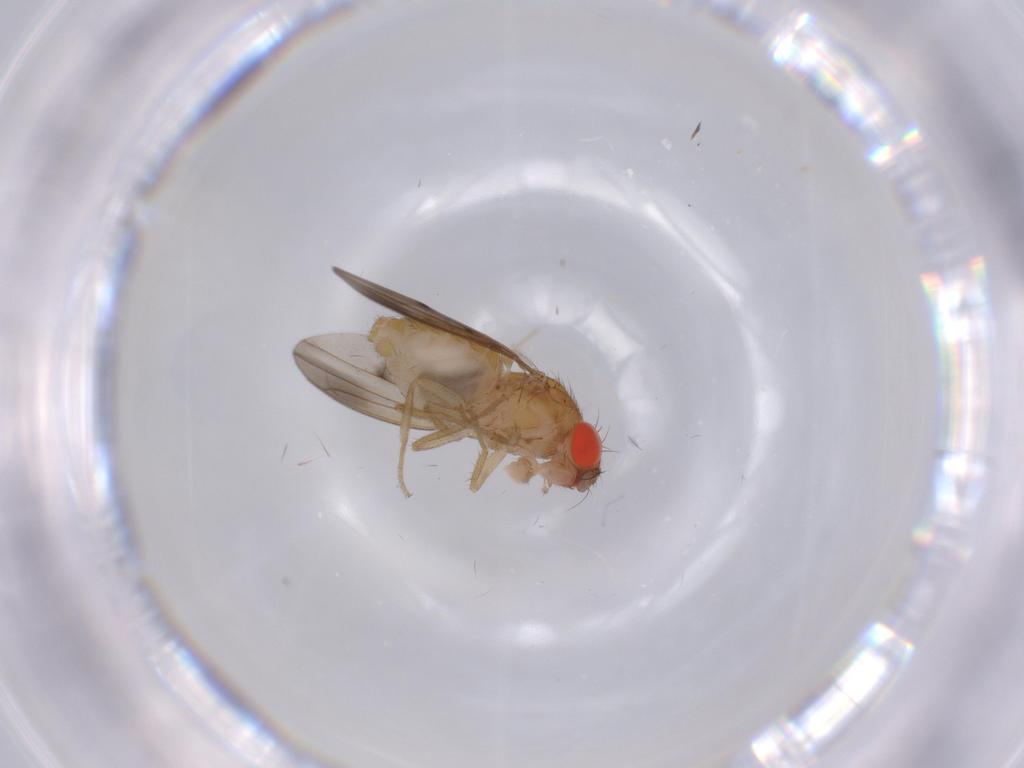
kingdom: Animalia
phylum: Arthropoda
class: Insecta
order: Diptera
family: Drosophilidae
